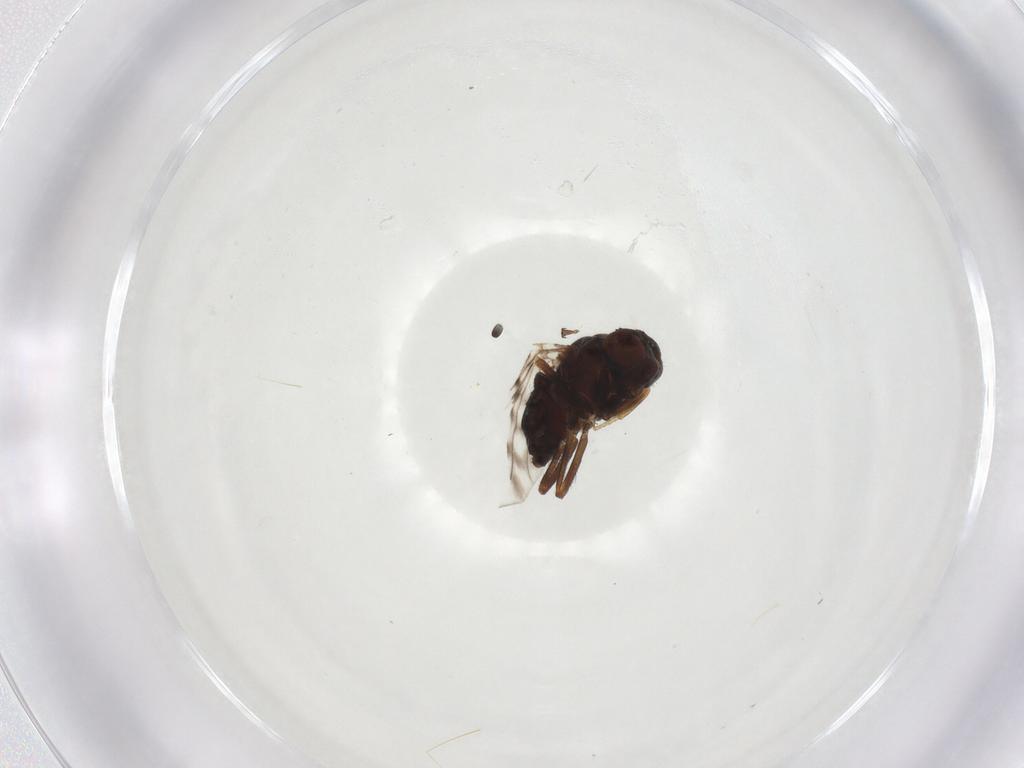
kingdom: Animalia
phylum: Arthropoda
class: Insecta
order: Diptera
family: Ephydridae
